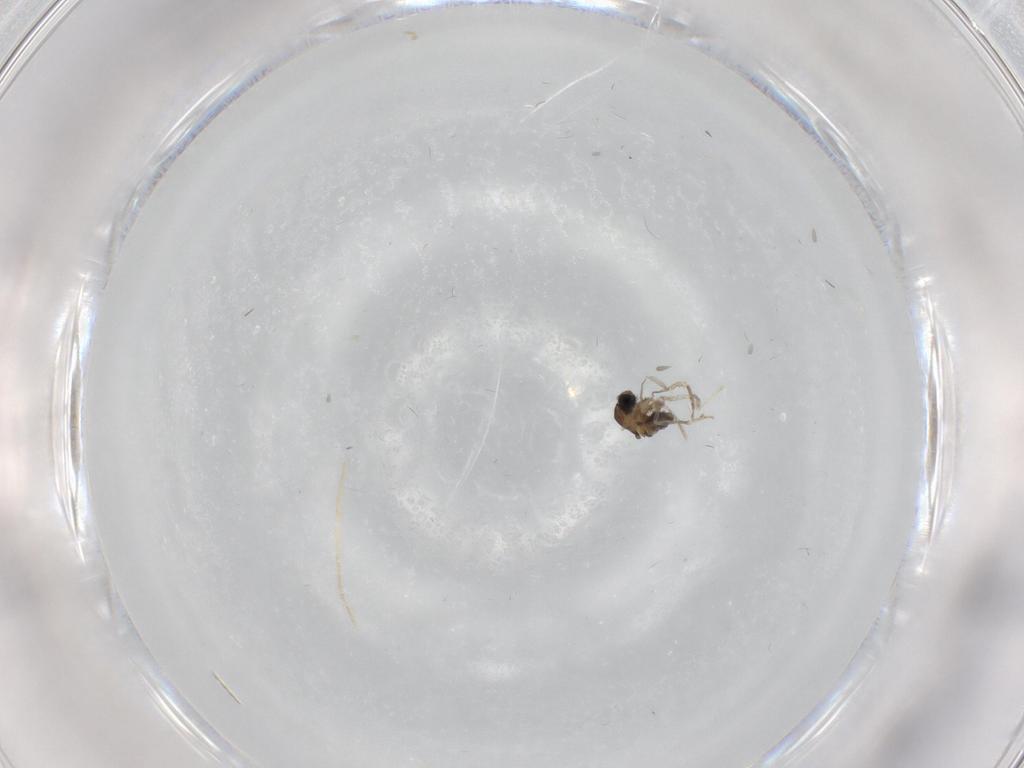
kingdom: Animalia
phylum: Arthropoda
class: Insecta
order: Diptera
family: Cecidomyiidae
